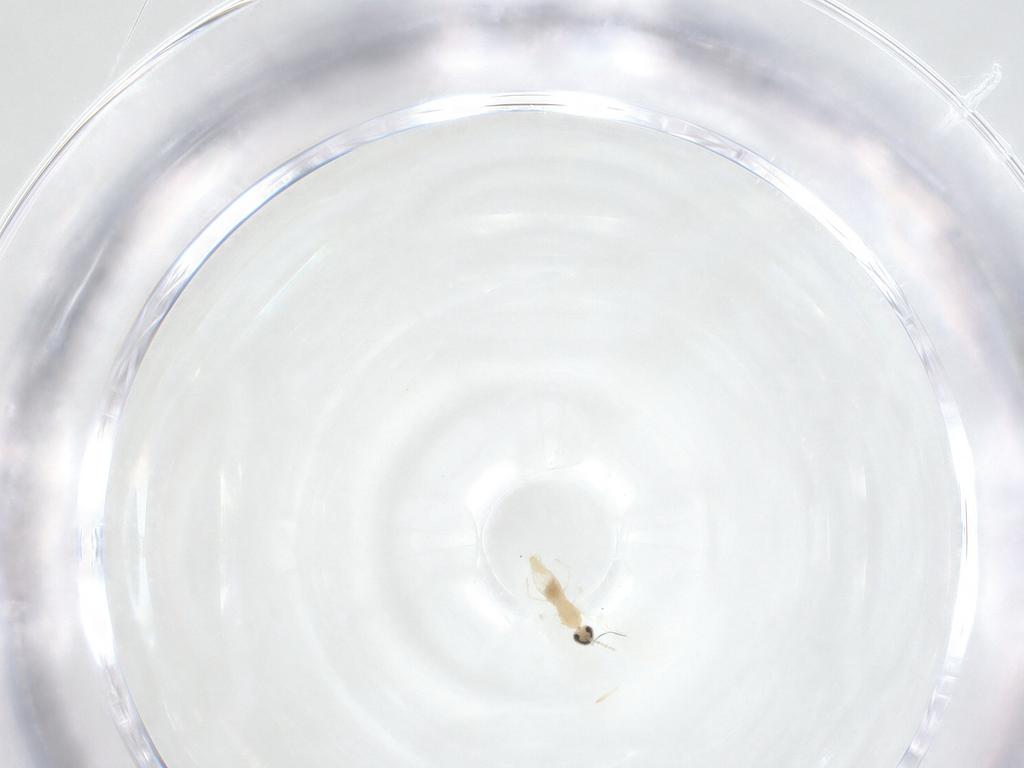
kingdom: Animalia
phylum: Arthropoda
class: Insecta
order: Diptera
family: Cecidomyiidae
